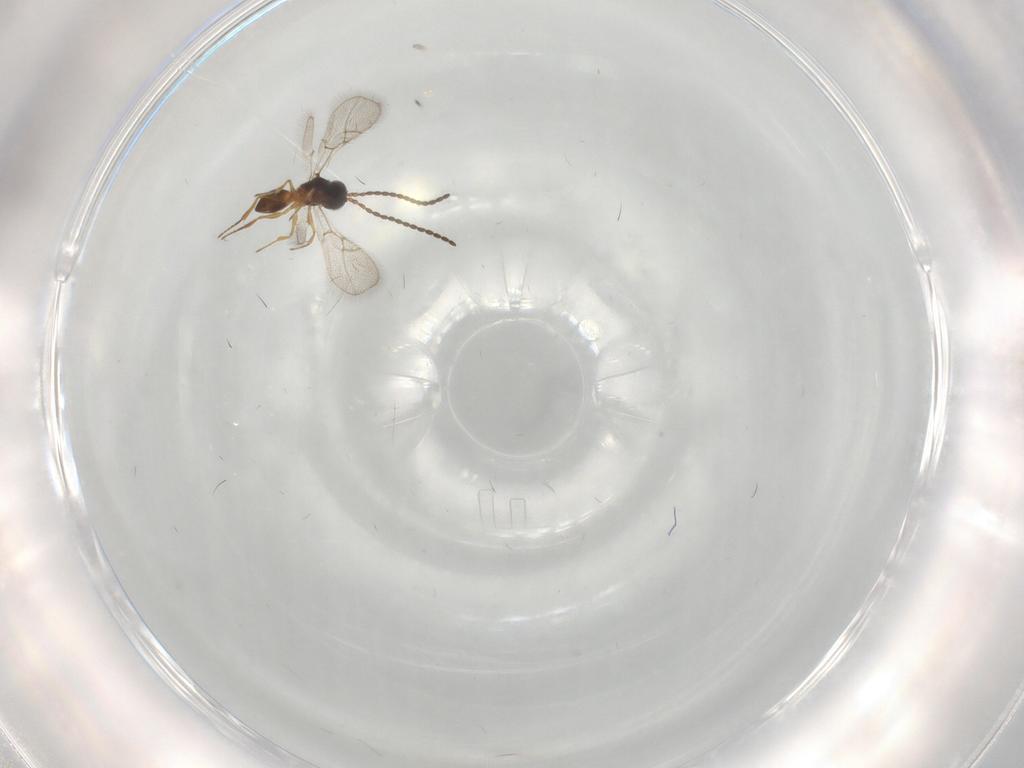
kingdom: Animalia
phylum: Arthropoda
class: Insecta
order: Hymenoptera
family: Figitidae
